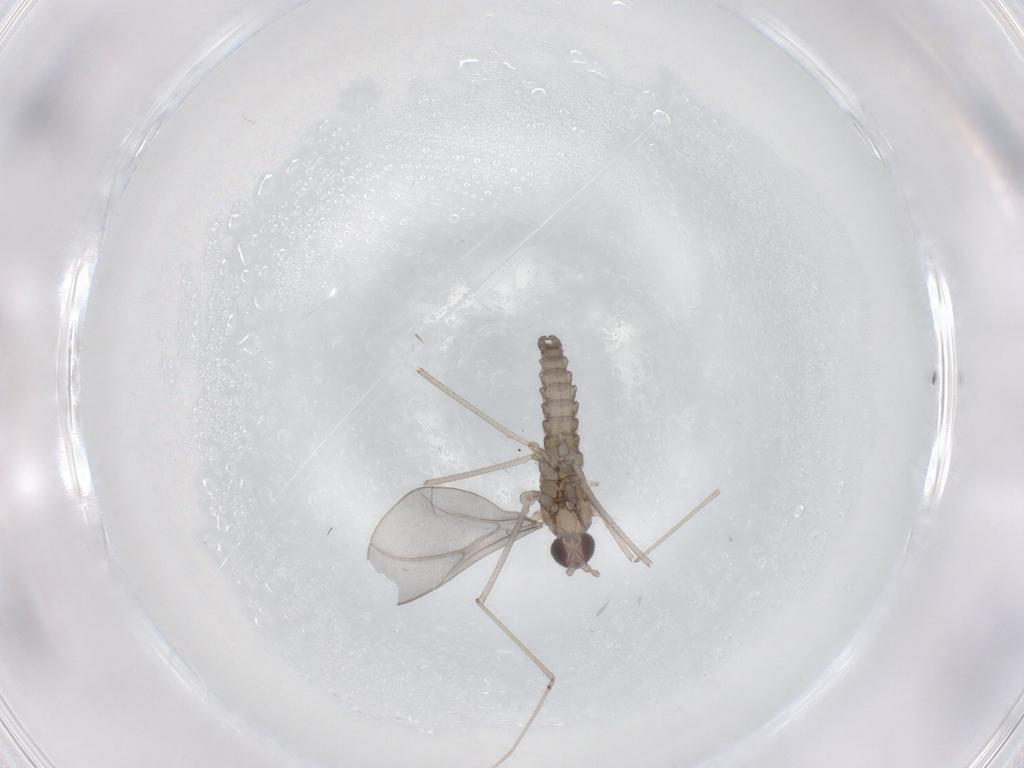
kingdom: Animalia
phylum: Arthropoda
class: Insecta
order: Diptera
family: Cecidomyiidae
